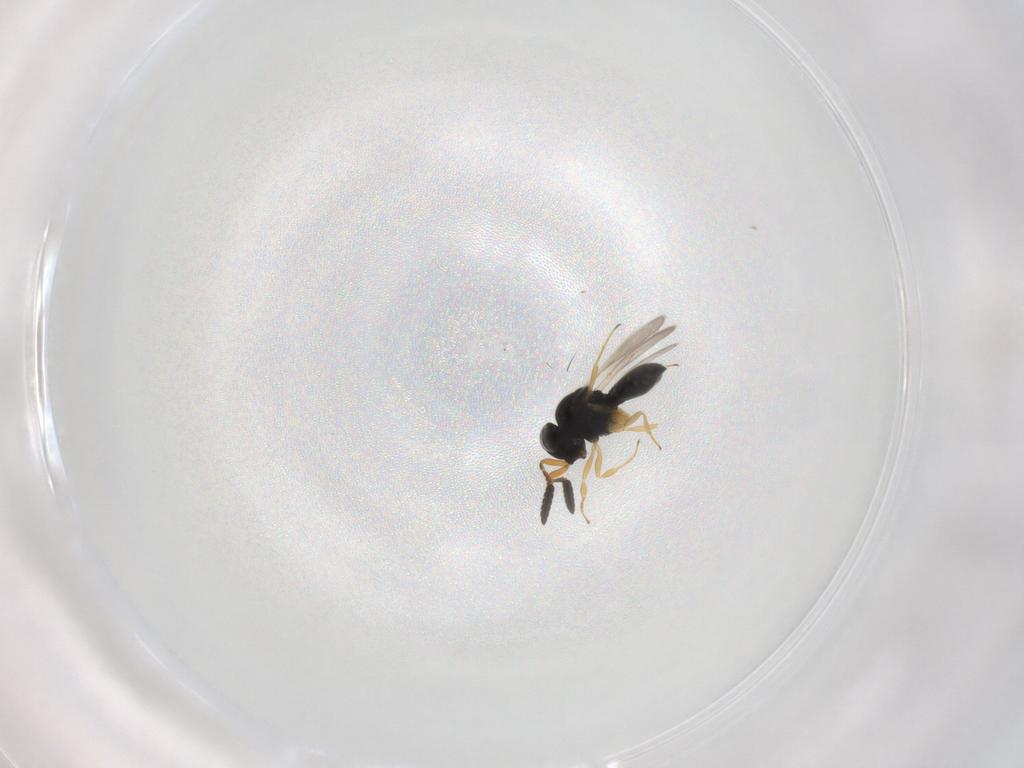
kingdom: Animalia
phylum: Arthropoda
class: Insecta
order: Hymenoptera
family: Scelionidae
